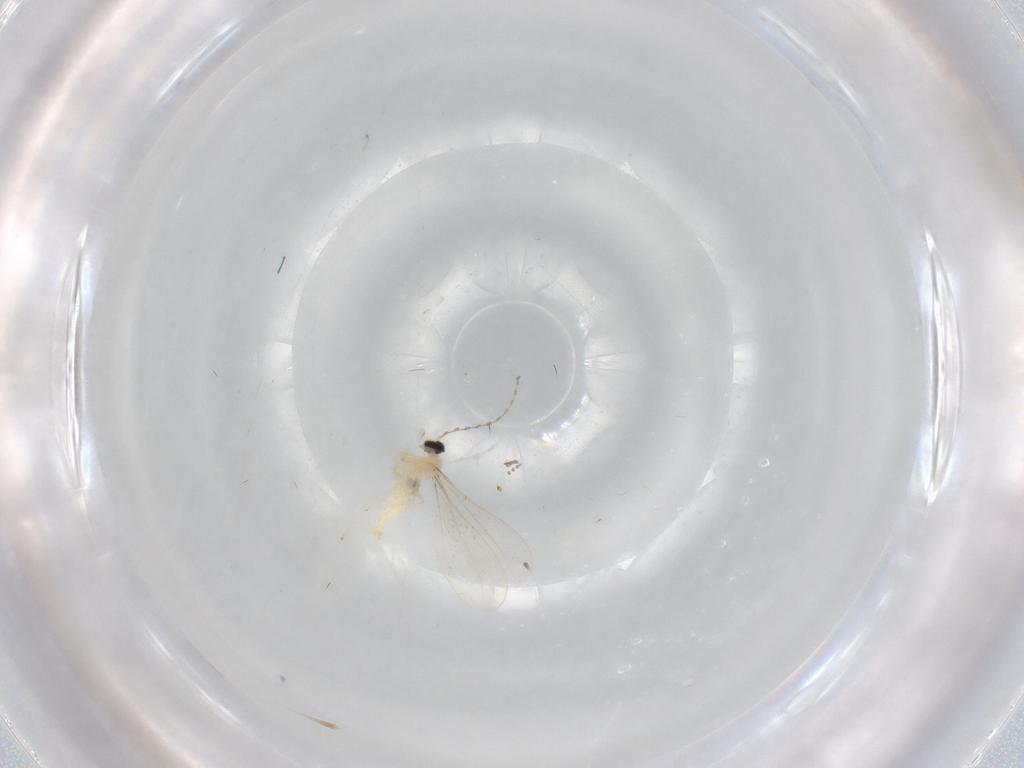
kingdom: Animalia
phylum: Arthropoda
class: Insecta
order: Diptera
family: Cecidomyiidae
